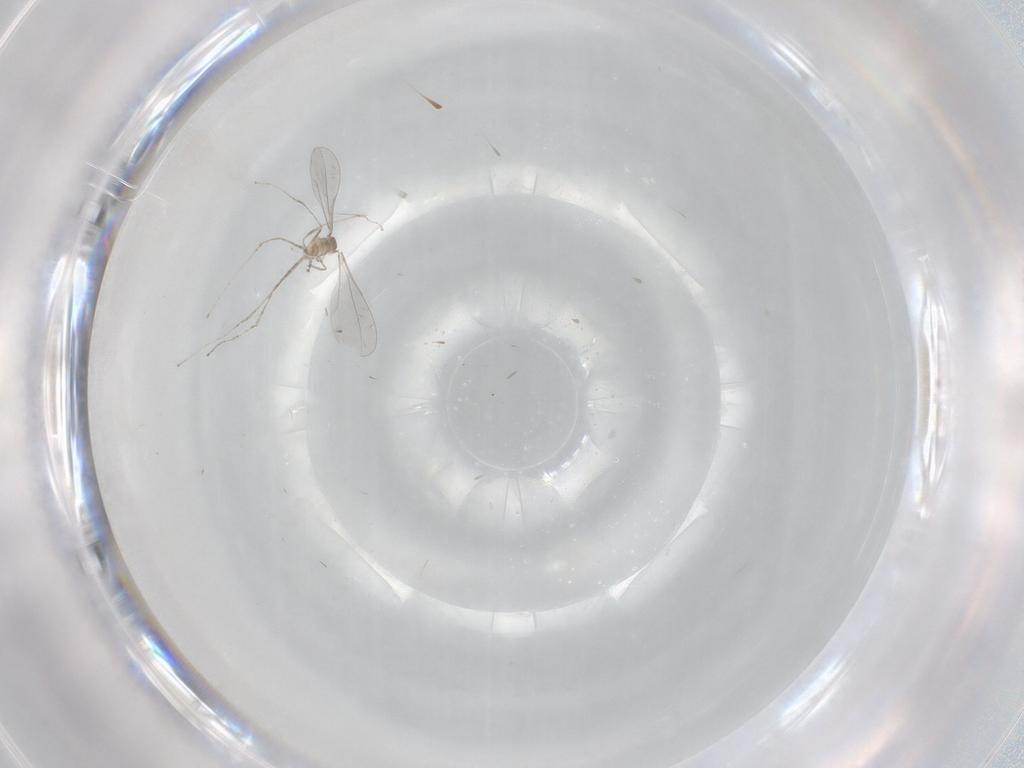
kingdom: Animalia
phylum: Arthropoda
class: Insecta
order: Diptera
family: Cecidomyiidae
